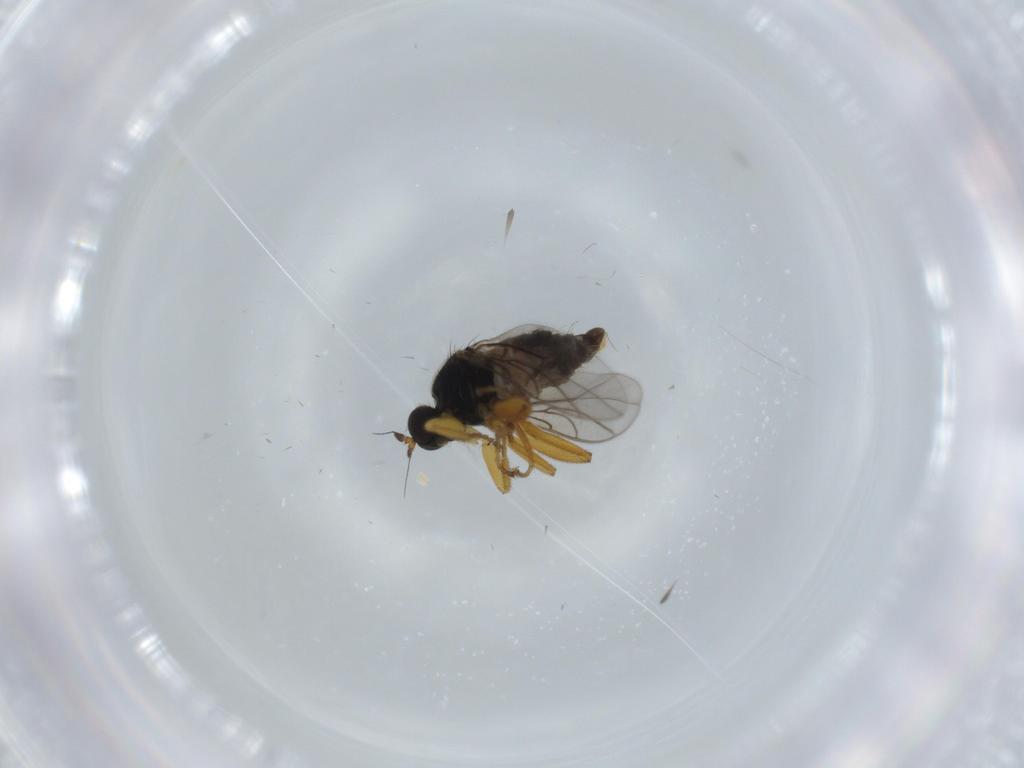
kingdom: Animalia
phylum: Arthropoda
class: Insecta
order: Diptera
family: Hybotidae
